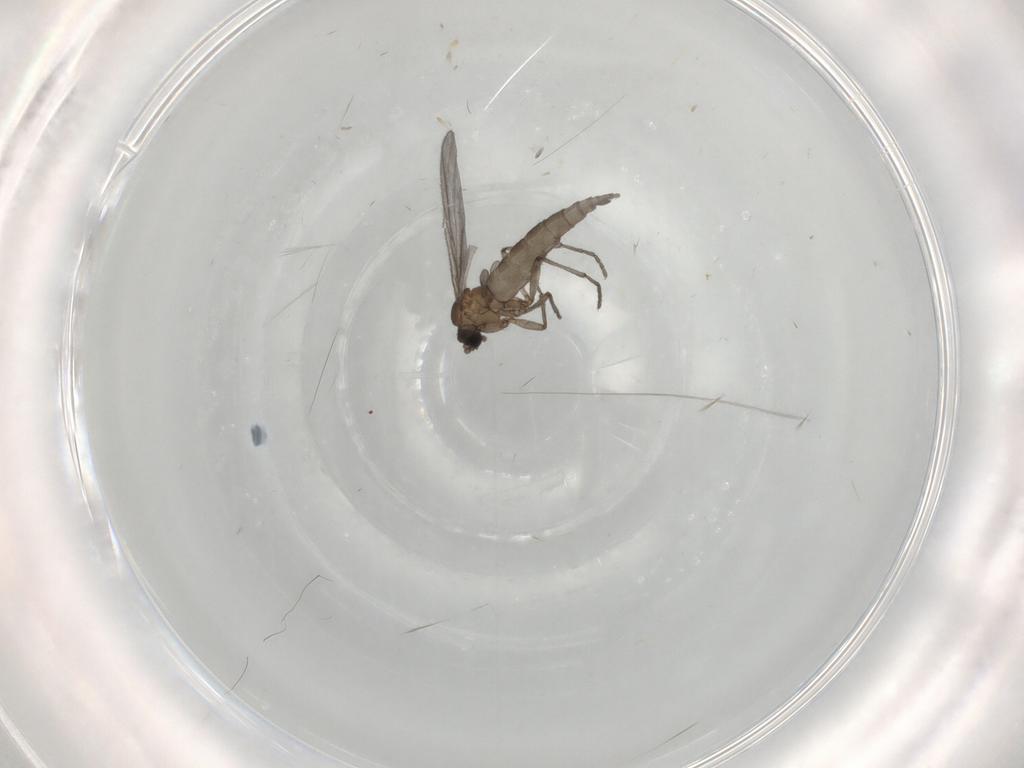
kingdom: Animalia
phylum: Arthropoda
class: Insecta
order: Diptera
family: Sciaridae
